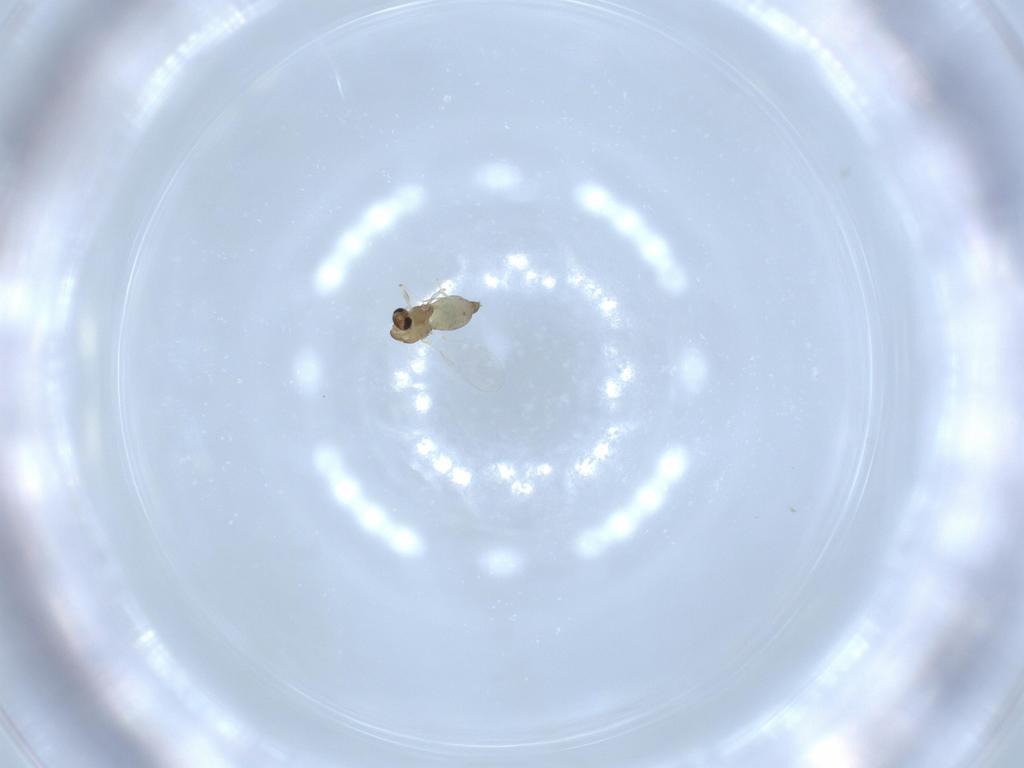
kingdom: Animalia
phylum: Arthropoda
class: Insecta
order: Diptera
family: Chironomidae
